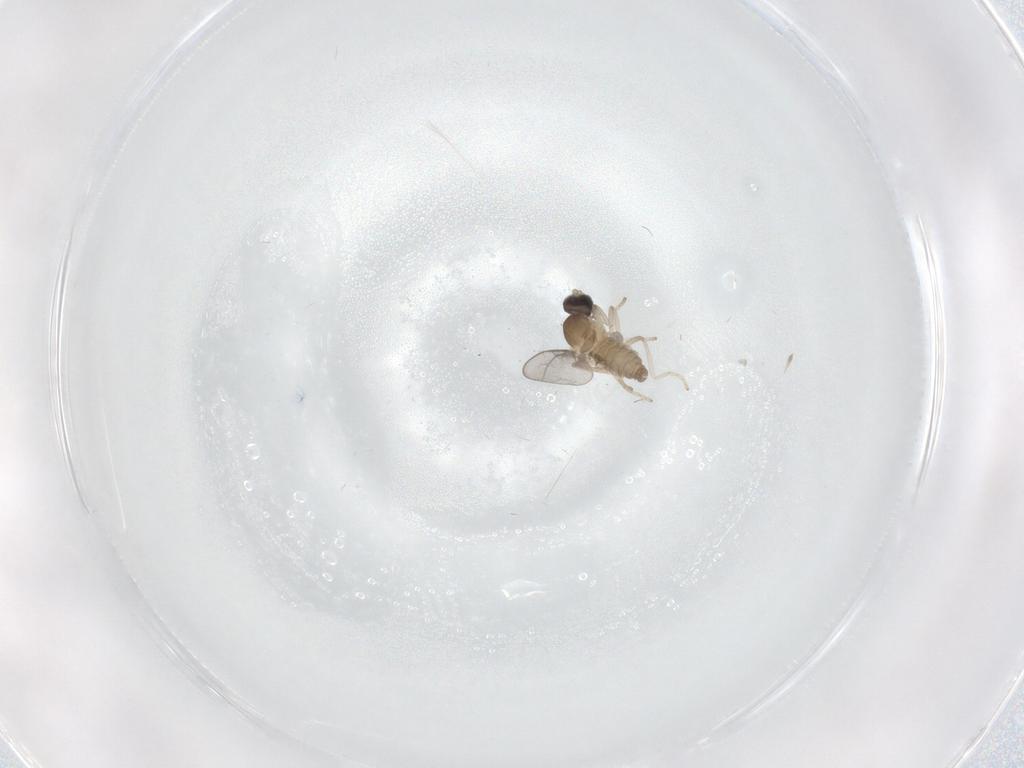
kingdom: Animalia
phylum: Arthropoda
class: Insecta
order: Diptera
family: Cecidomyiidae
